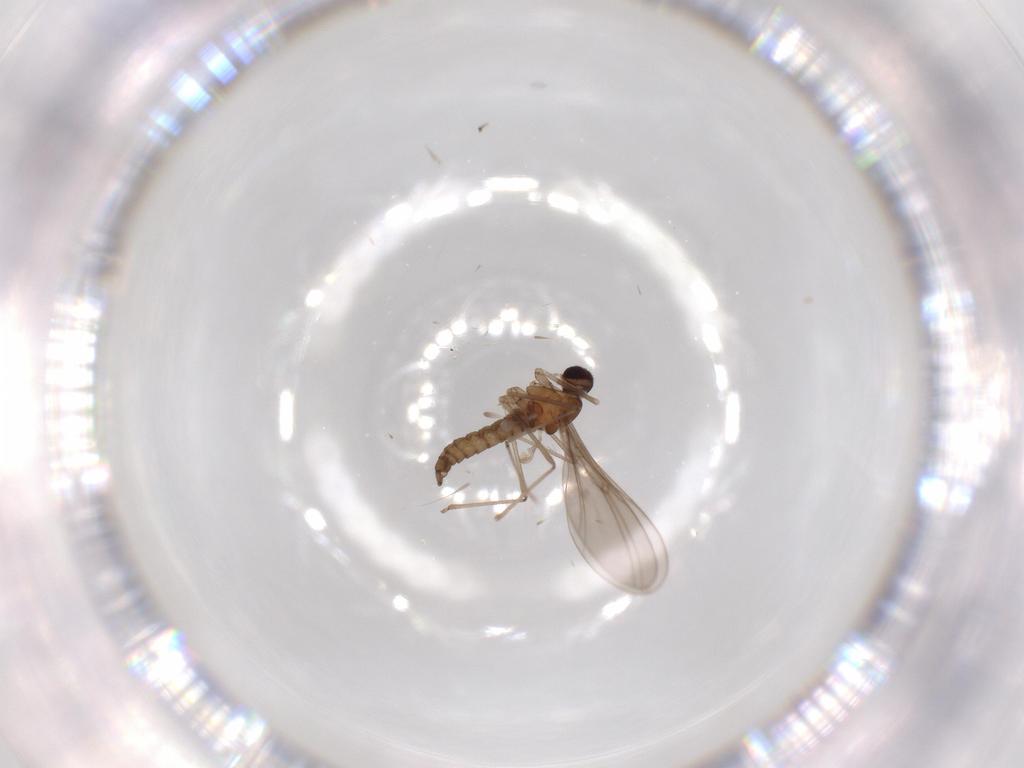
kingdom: Animalia
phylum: Arthropoda
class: Insecta
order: Diptera
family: Cecidomyiidae
